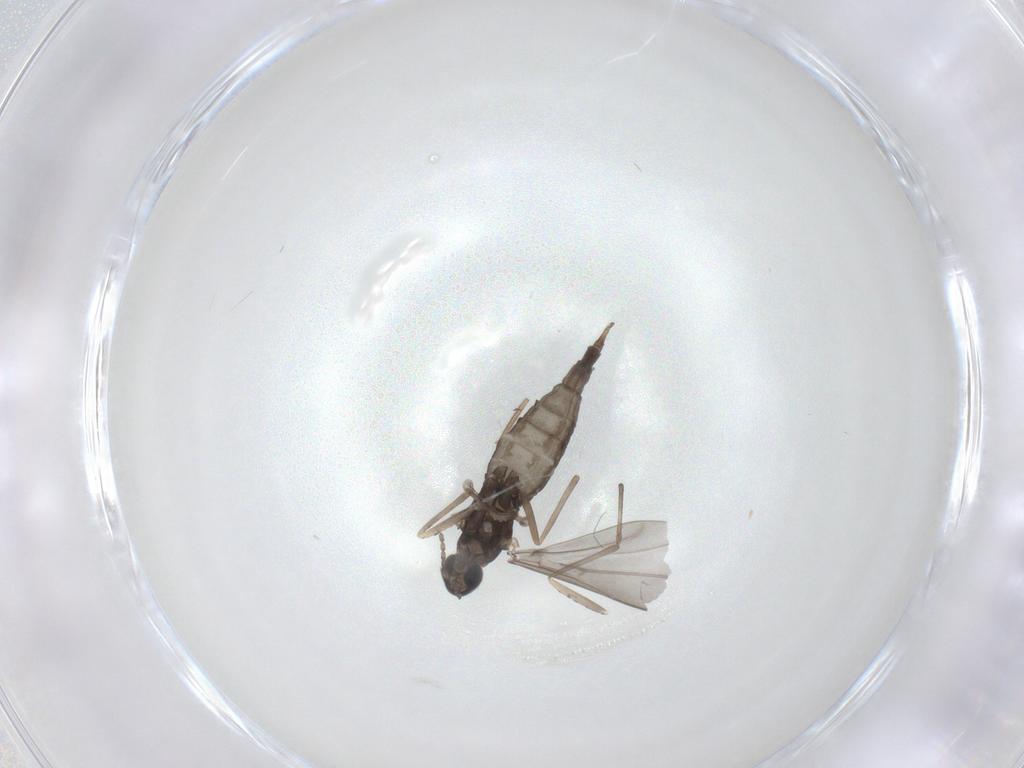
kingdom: Animalia
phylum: Arthropoda
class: Insecta
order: Diptera
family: Cecidomyiidae
